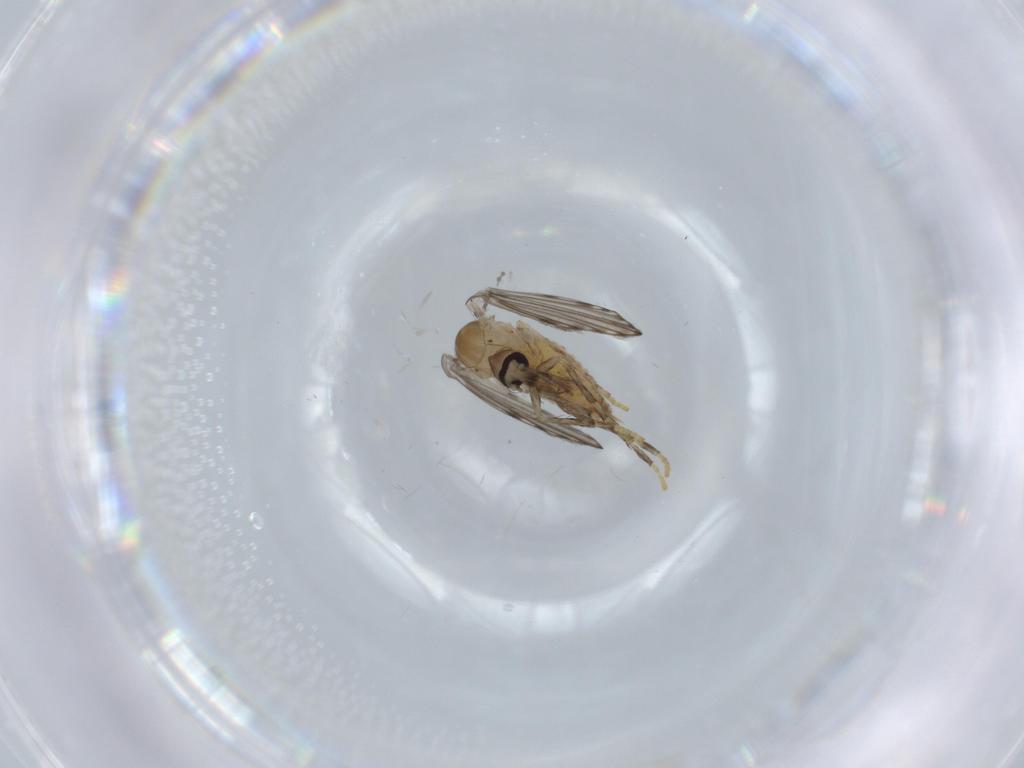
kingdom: Animalia
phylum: Arthropoda
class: Insecta
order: Diptera
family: Psychodidae
